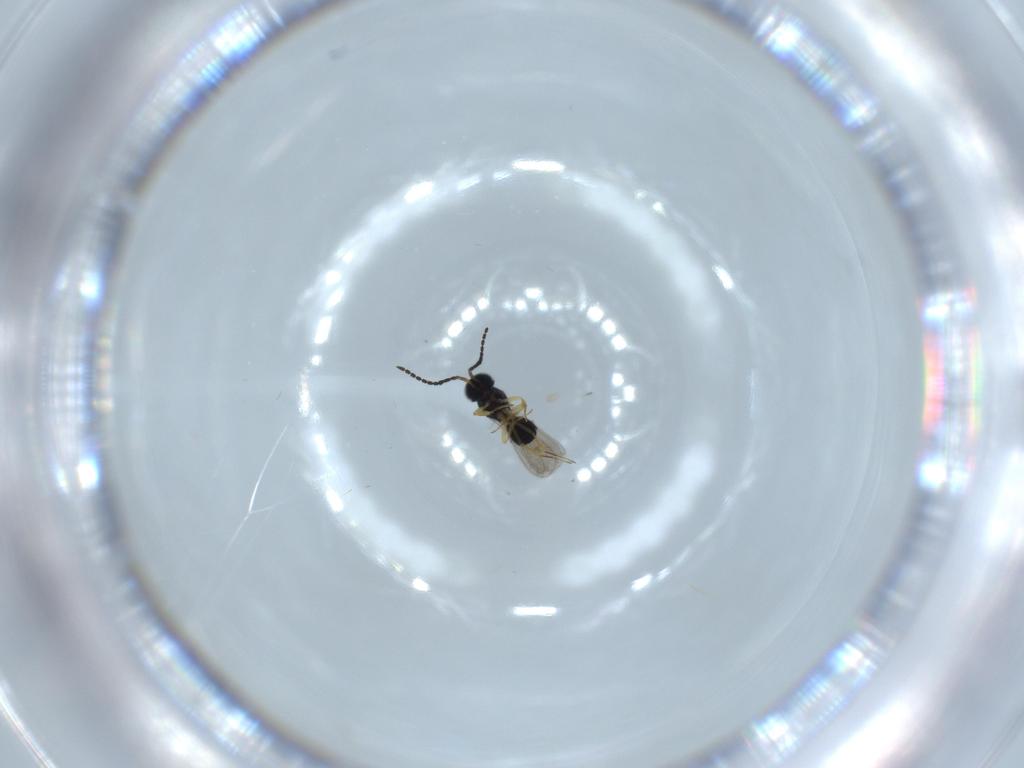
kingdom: Animalia
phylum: Arthropoda
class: Insecta
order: Hymenoptera
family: Scelionidae
